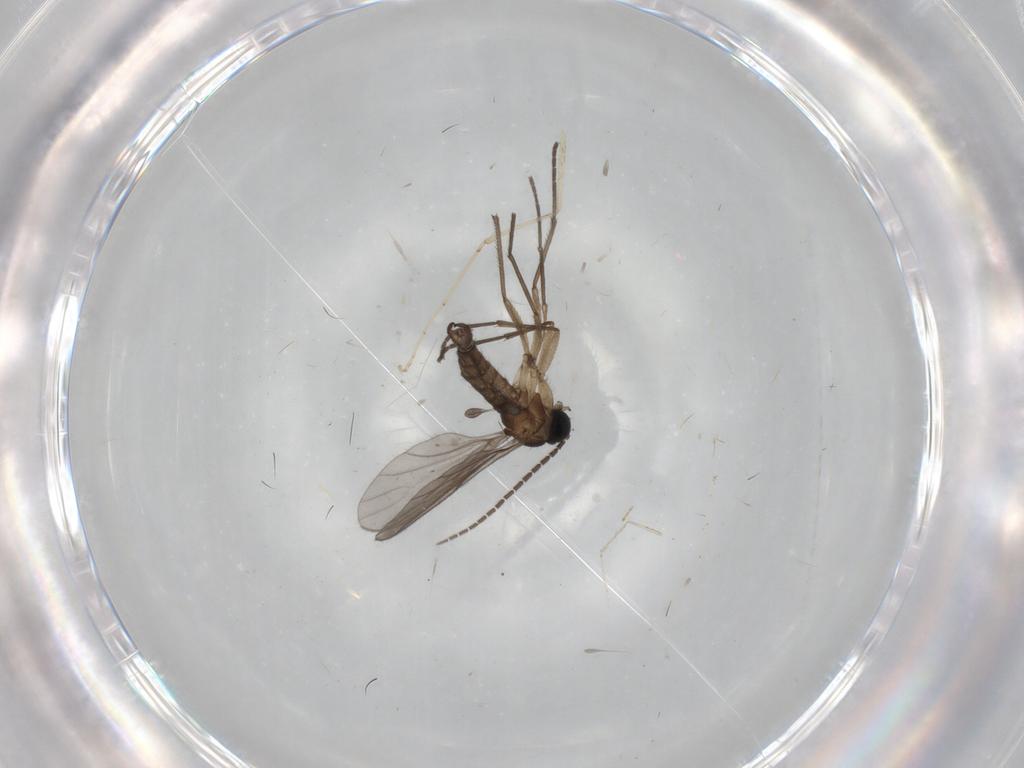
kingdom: Animalia
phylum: Arthropoda
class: Insecta
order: Diptera
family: Sciaridae
